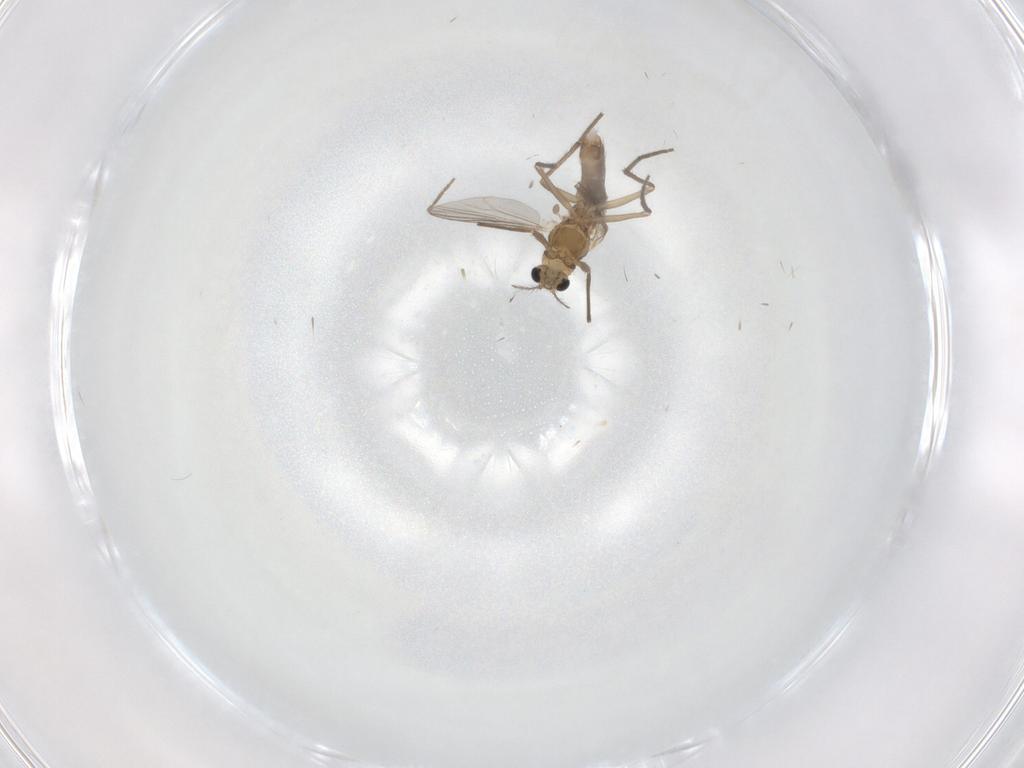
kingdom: Animalia
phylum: Arthropoda
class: Insecta
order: Diptera
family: Chironomidae
